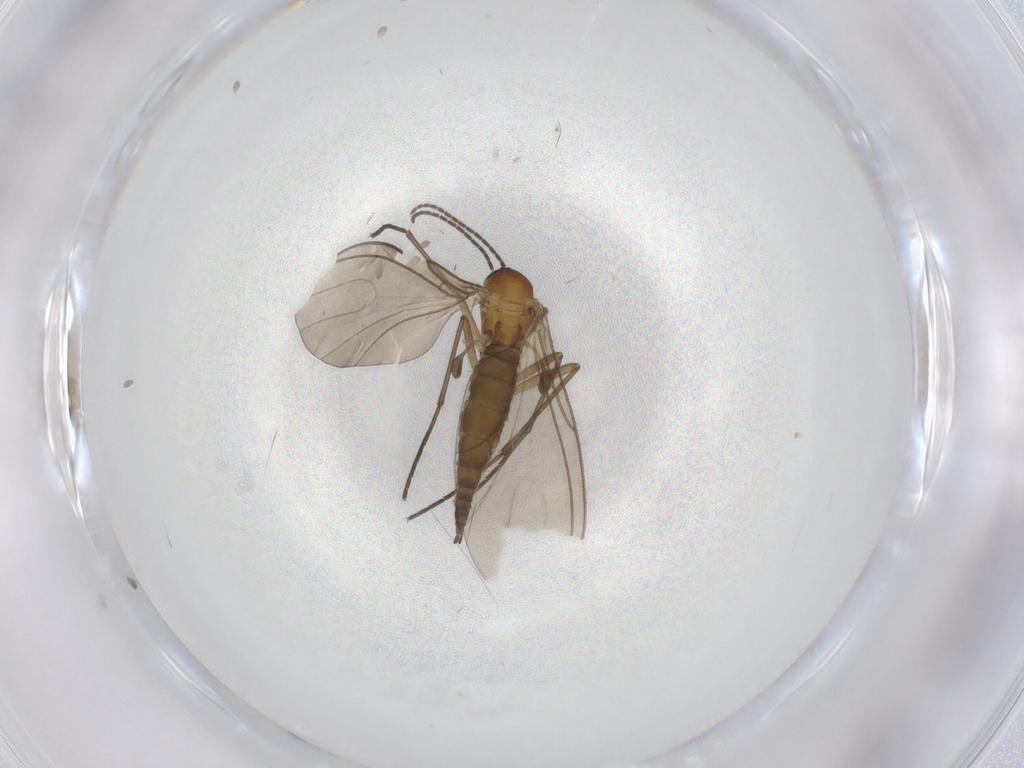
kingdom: Animalia
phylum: Arthropoda
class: Insecta
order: Diptera
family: Sciaridae
